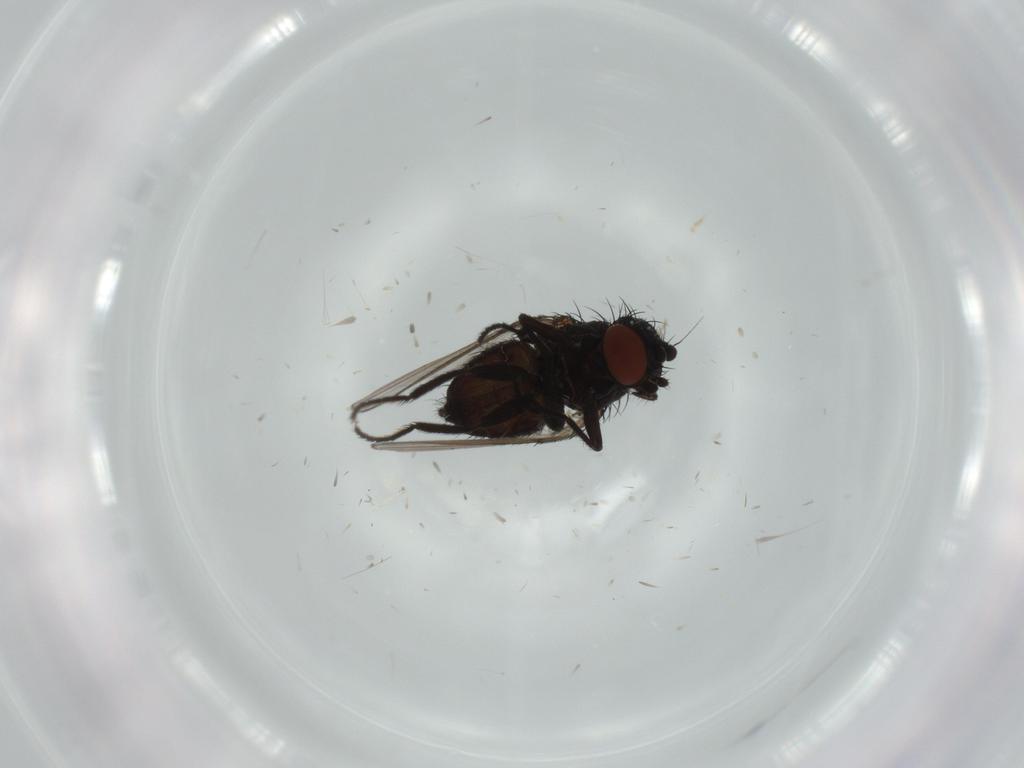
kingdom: Animalia
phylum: Arthropoda
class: Insecta
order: Diptera
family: Milichiidae
